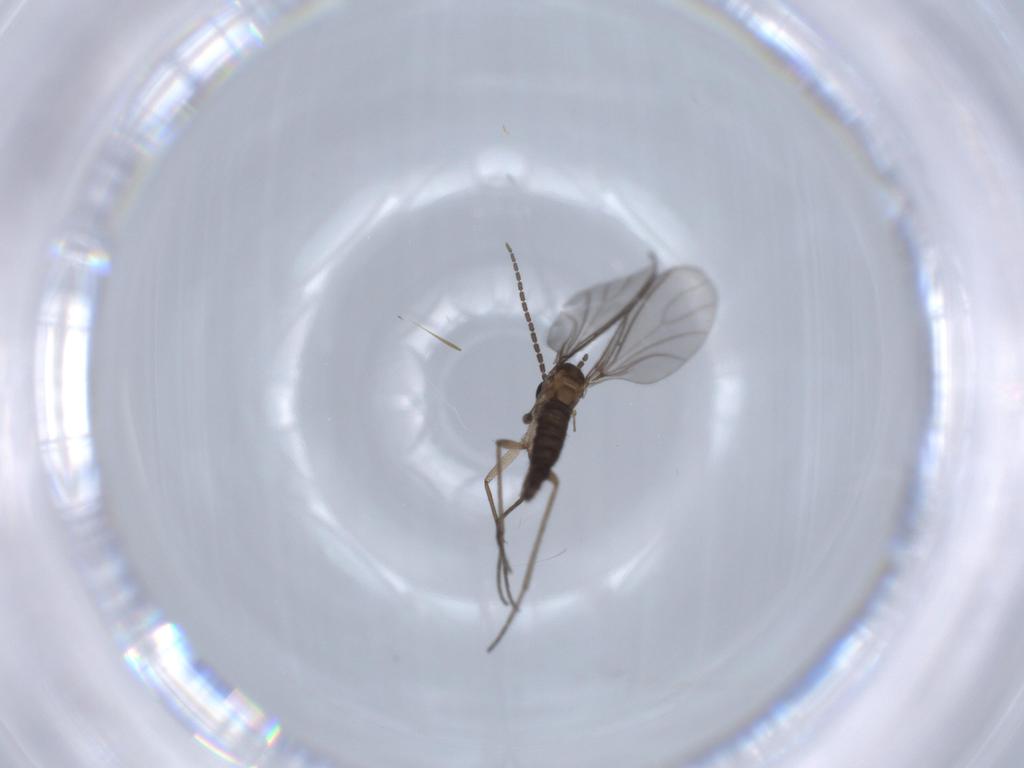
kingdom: Animalia
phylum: Arthropoda
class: Insecta
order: Diptera
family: Sciaridae
